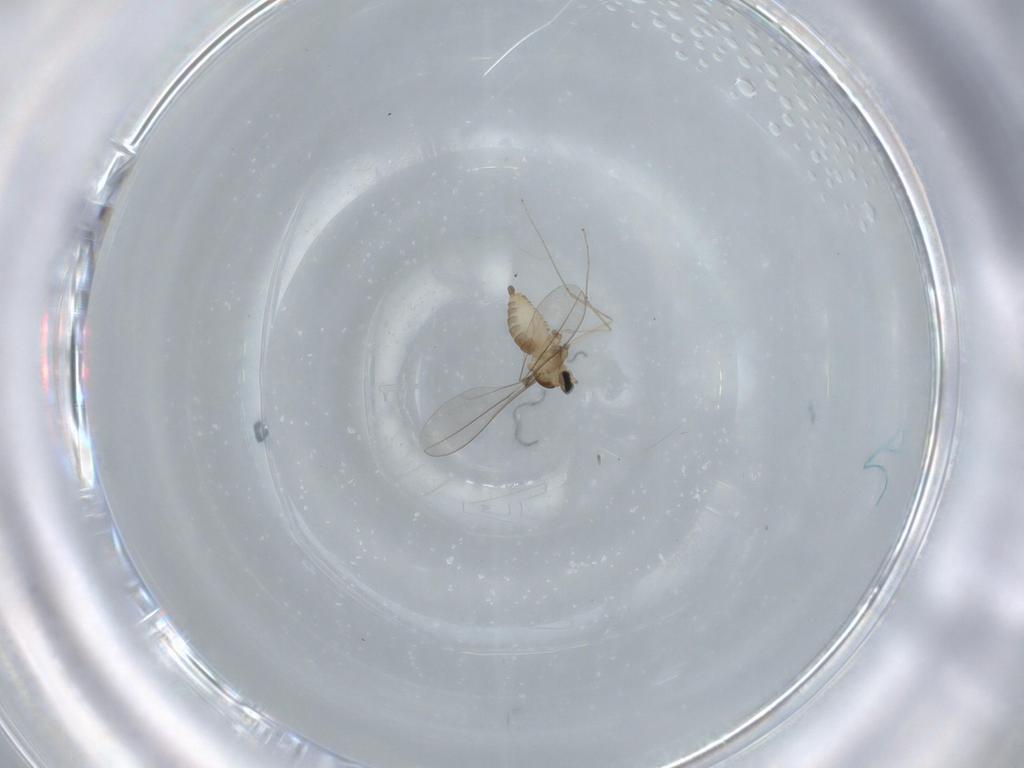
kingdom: Animalia
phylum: Arthropoda
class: Insecta
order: Diptera
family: Cecidomyiidae
